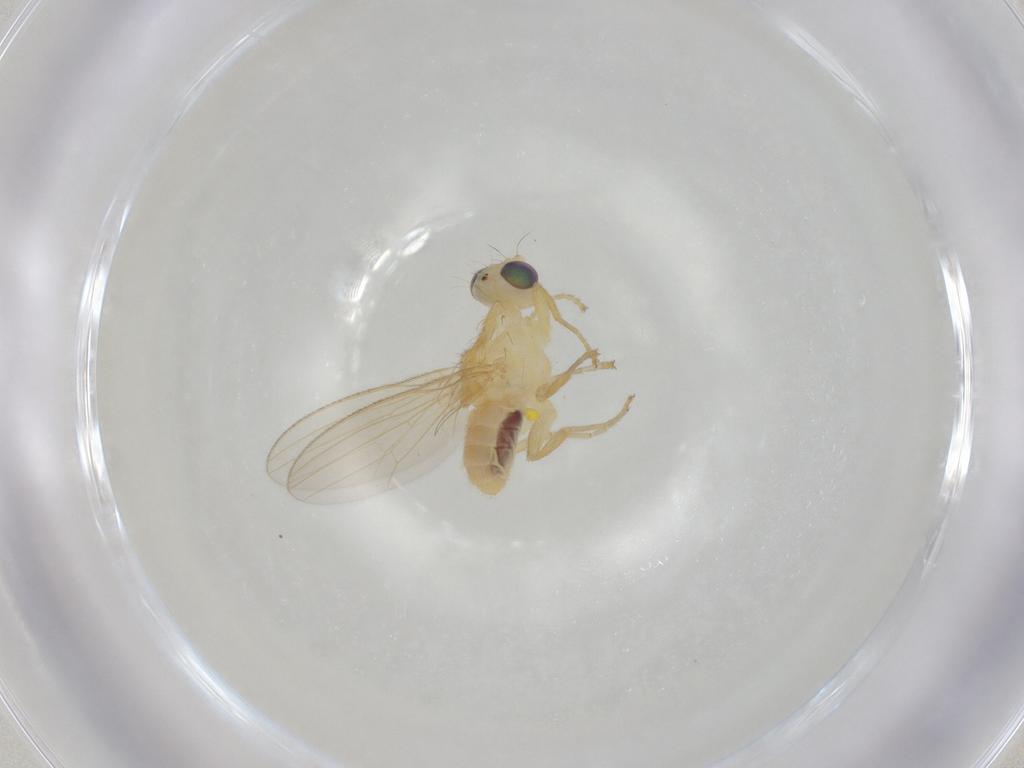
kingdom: Animalia
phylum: Arthropoda
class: Insecta
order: Diptera
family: Chyromyidae
